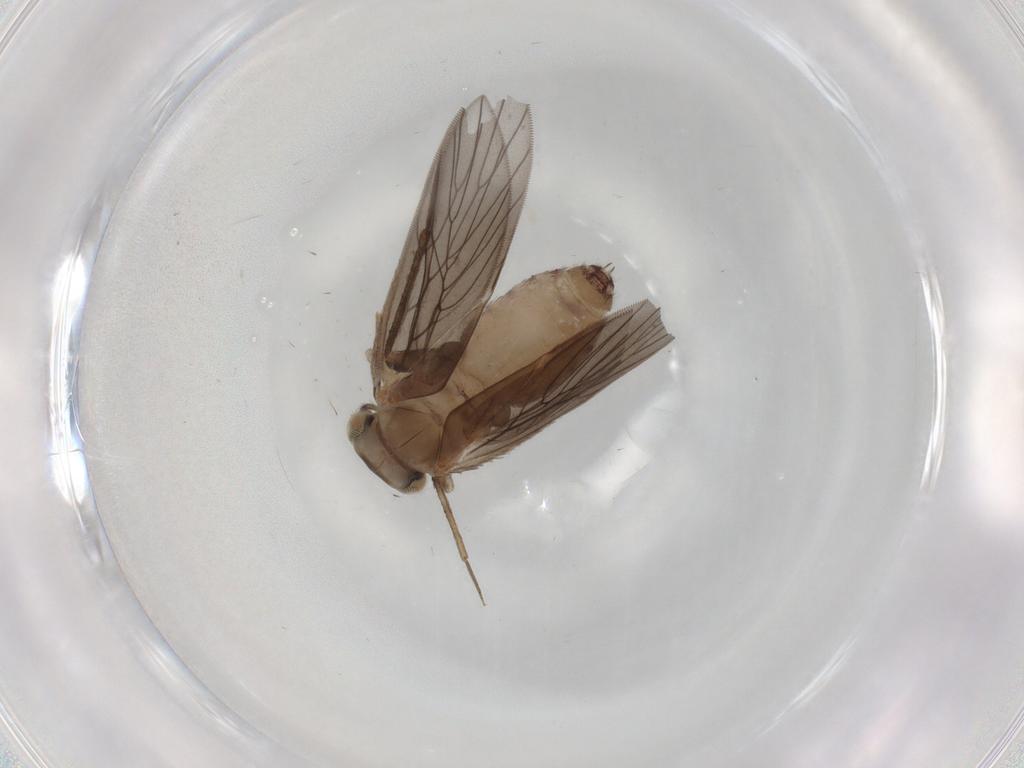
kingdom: Animalia
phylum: Arthropoda
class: Insecta
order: Psocodea
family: Lepidopsocidae
